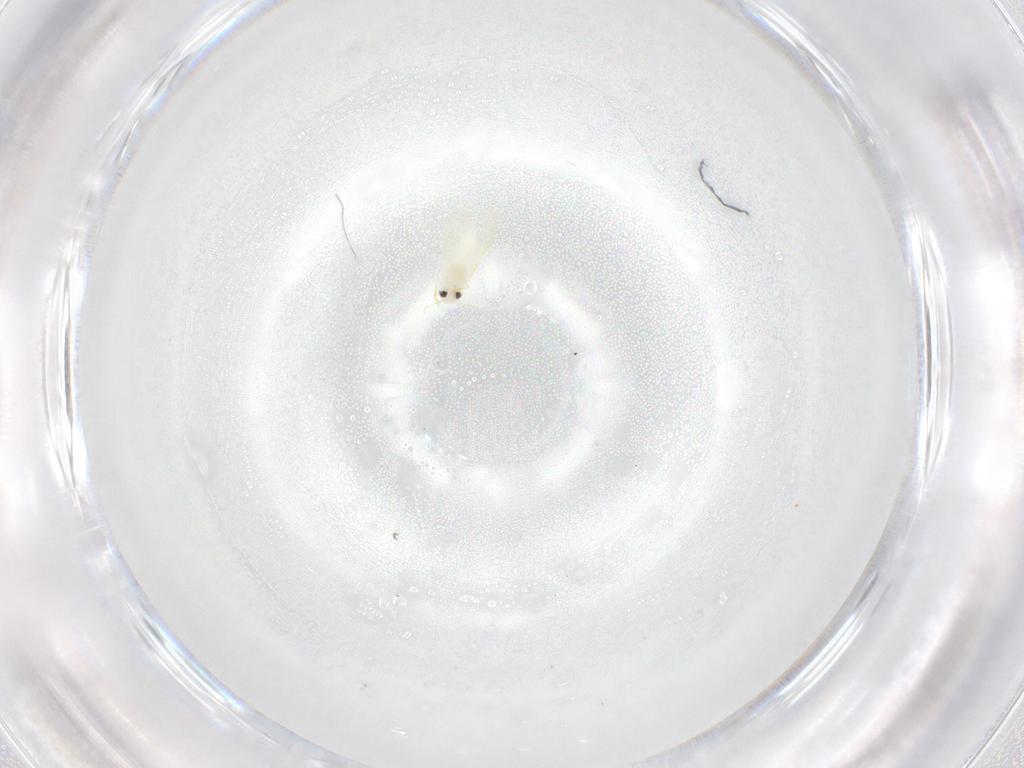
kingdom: Animalia
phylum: Arthropoda
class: Insecta
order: Hemiptera
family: Aleyrodidae
